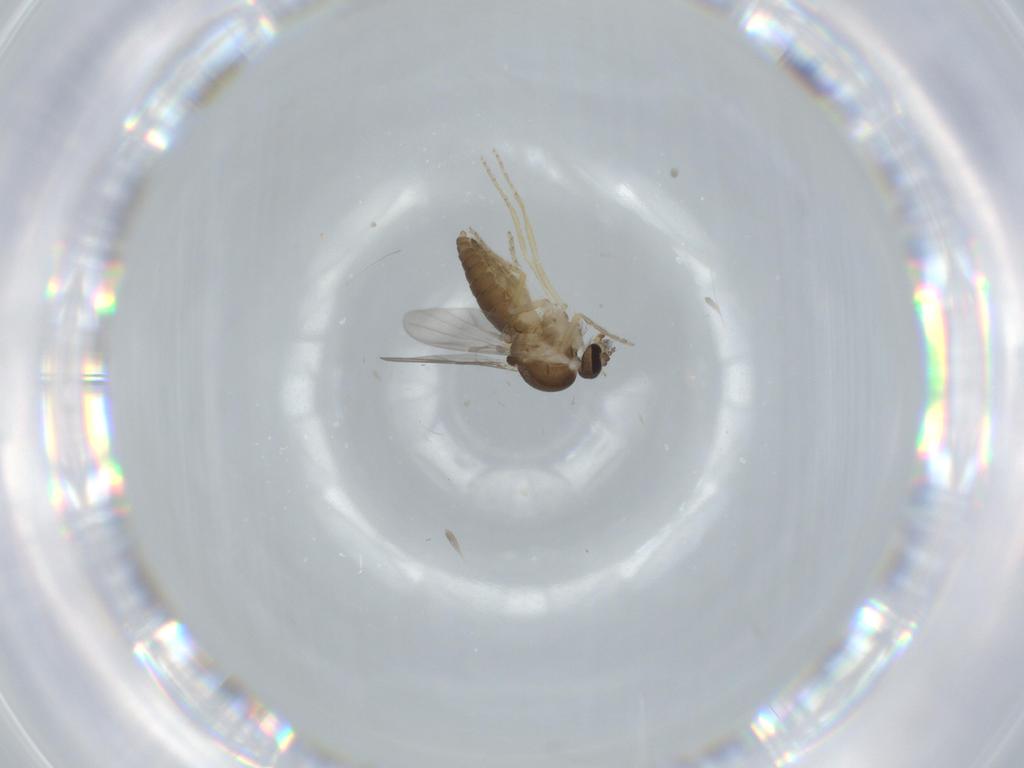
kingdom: Animalia
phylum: Arthropoda
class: Insecta
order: Diptera
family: Ceratopogonidae
